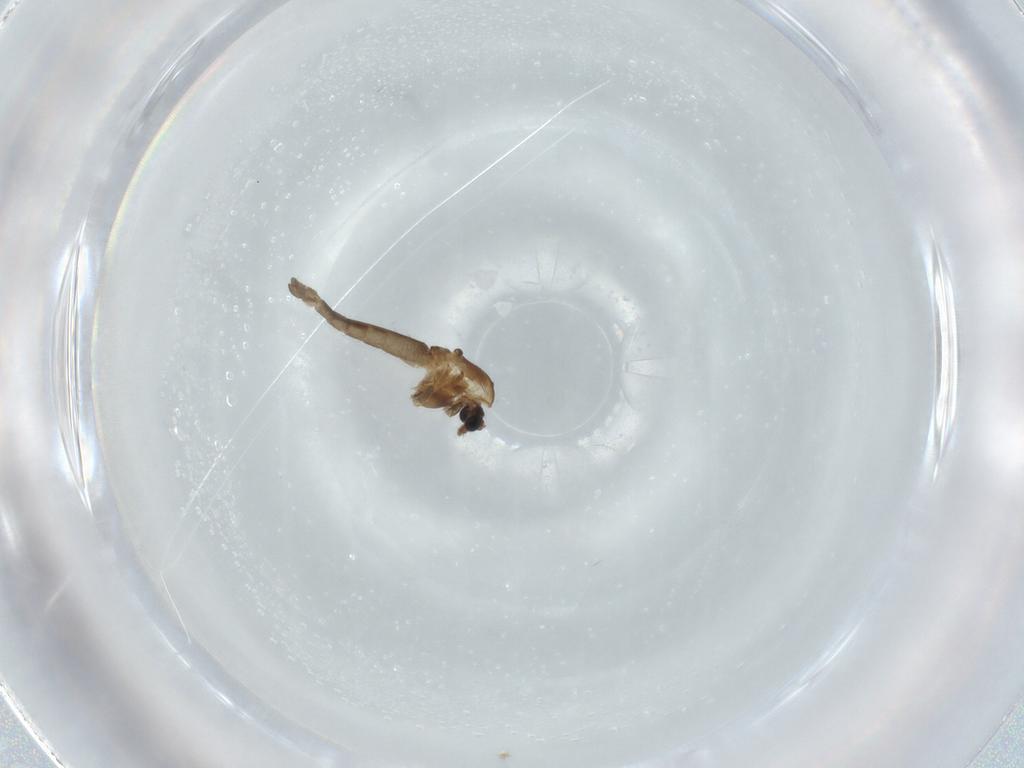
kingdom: Animalia
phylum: Arthropoda
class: Insecta
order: Diptera
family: Chironomidae
